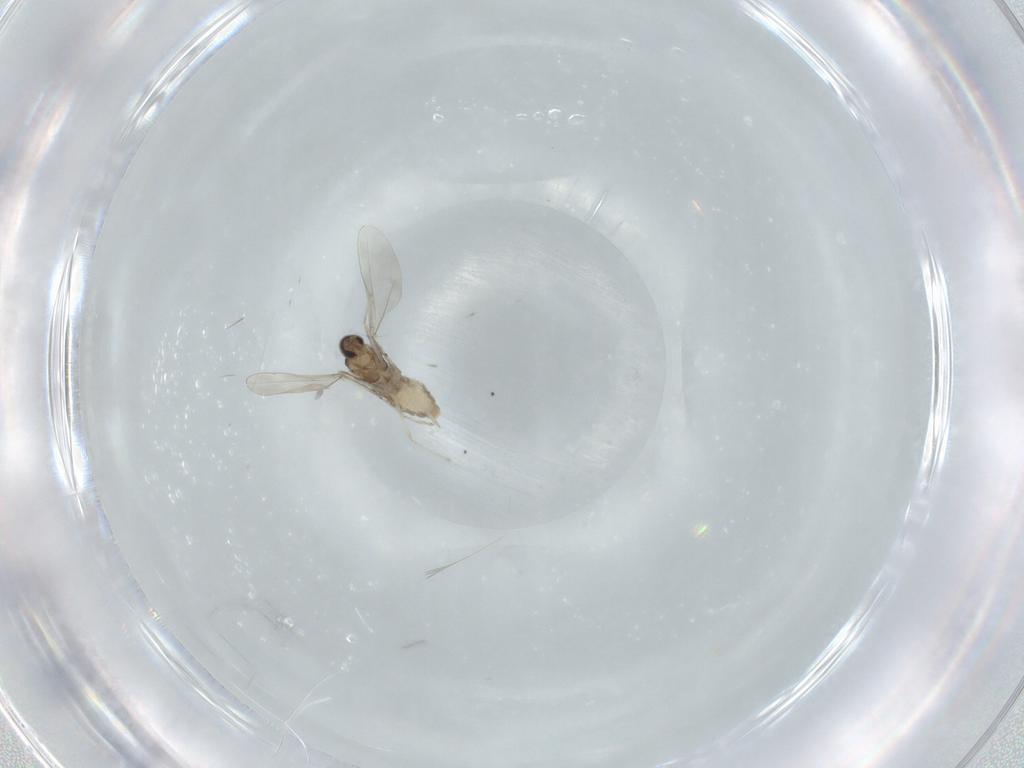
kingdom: Animalia
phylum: Arthropoda
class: Insecta
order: Diptera
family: Cecidomyiidae
